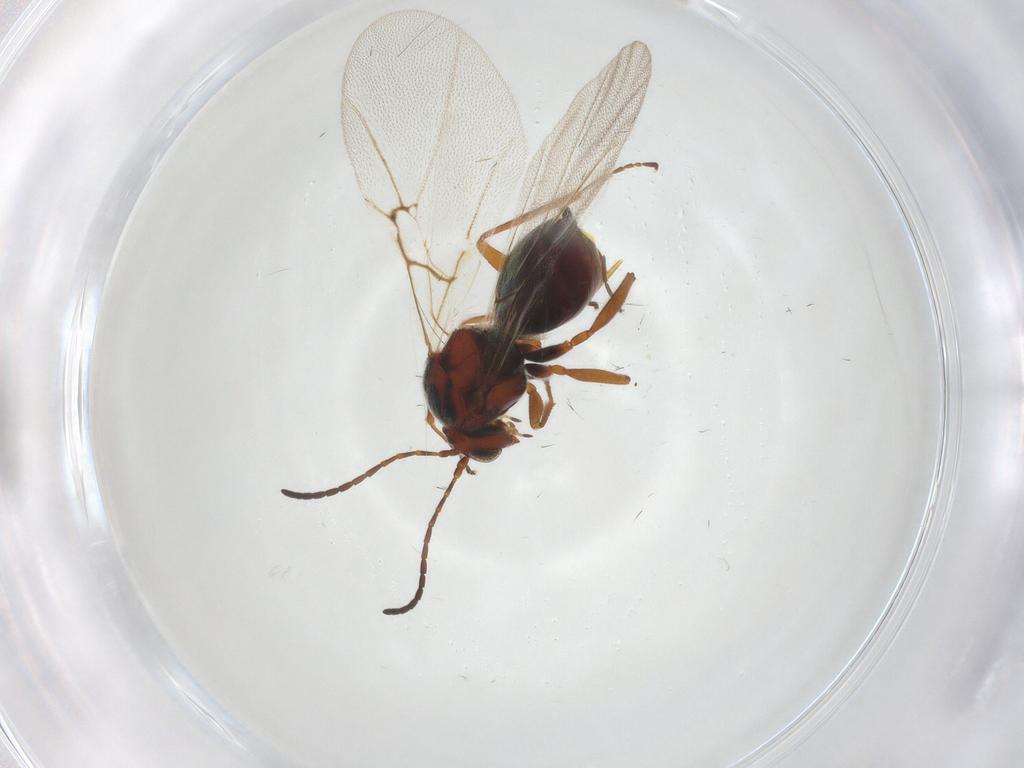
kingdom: Animalia
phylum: Arthropoda
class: Insecta
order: Hymenoptera
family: Cynipidae
